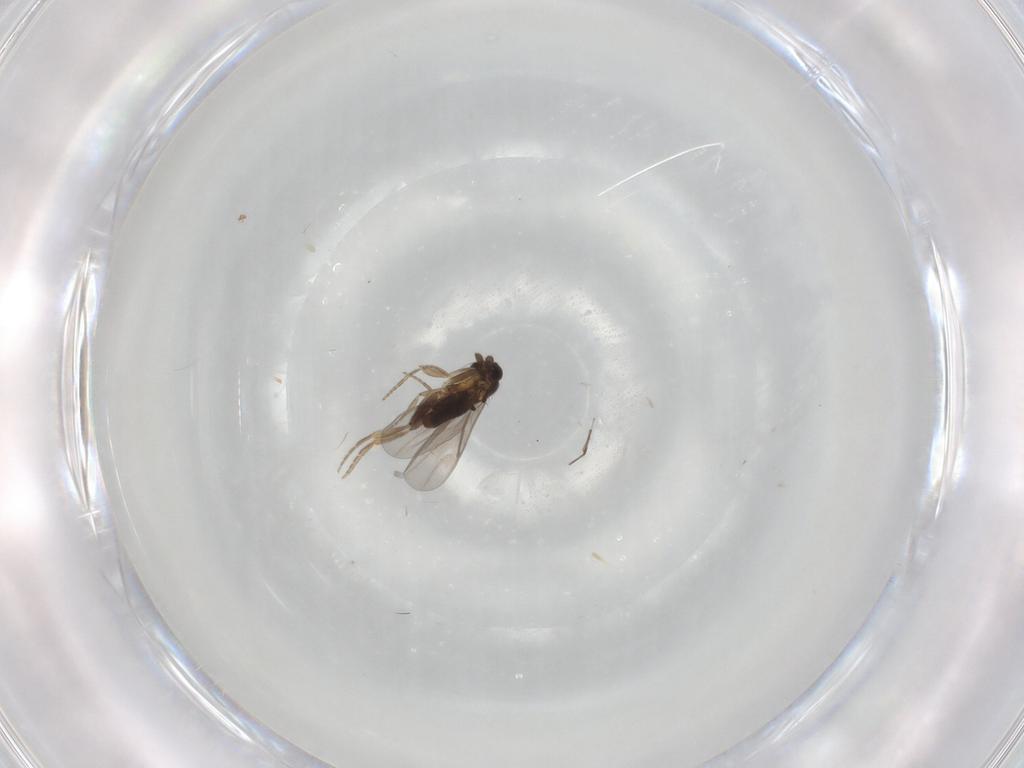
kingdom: Animalia
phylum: Arthropoda
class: Insecta
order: Diptera
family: Ditomyiidae
